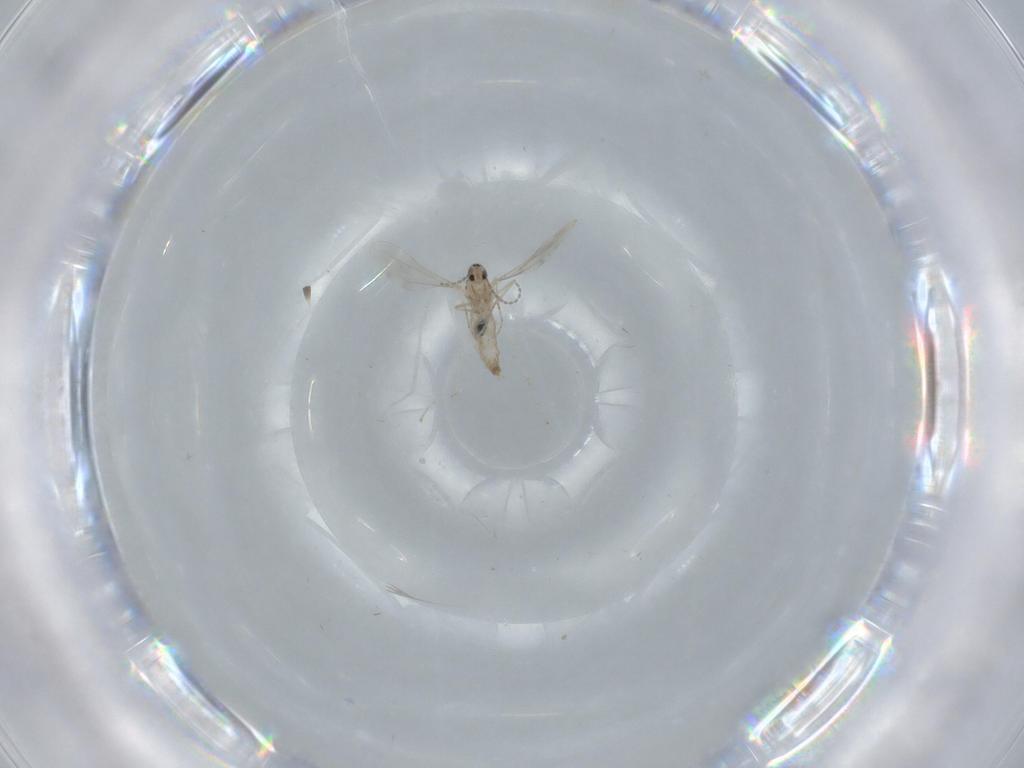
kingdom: Animalia
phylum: Arthropoda
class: Insecta
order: Diptera
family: Cecidomyiidae
